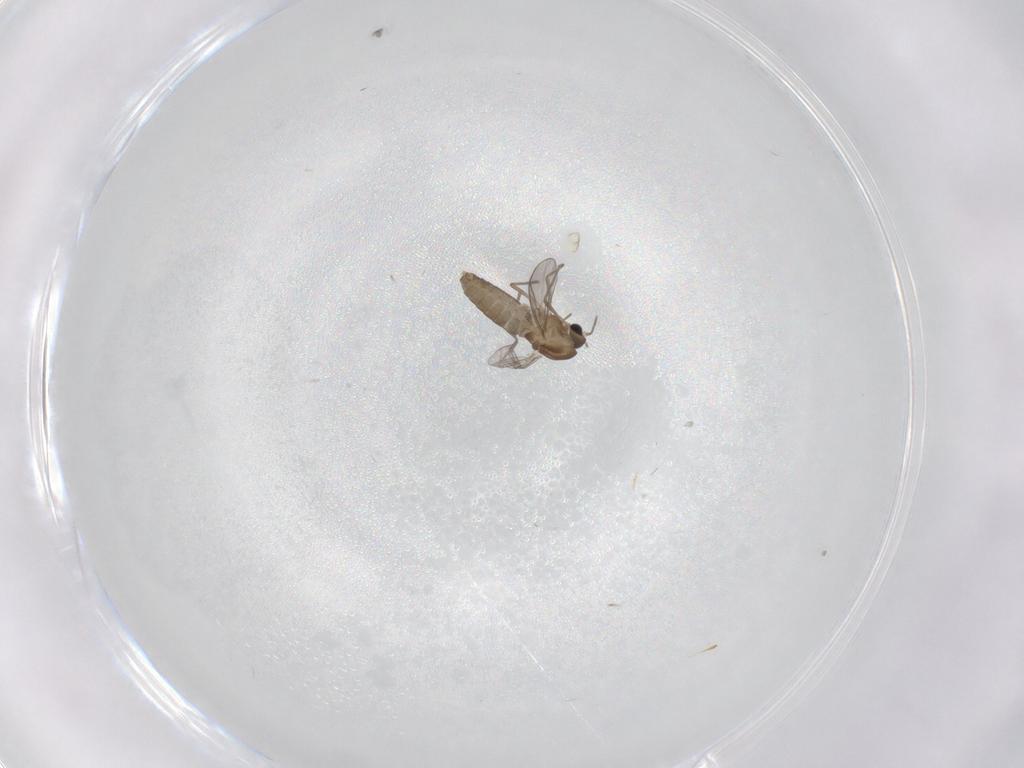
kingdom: Animalia
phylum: Arthropoda
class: Insecta
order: Diptera
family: Chironomidae
